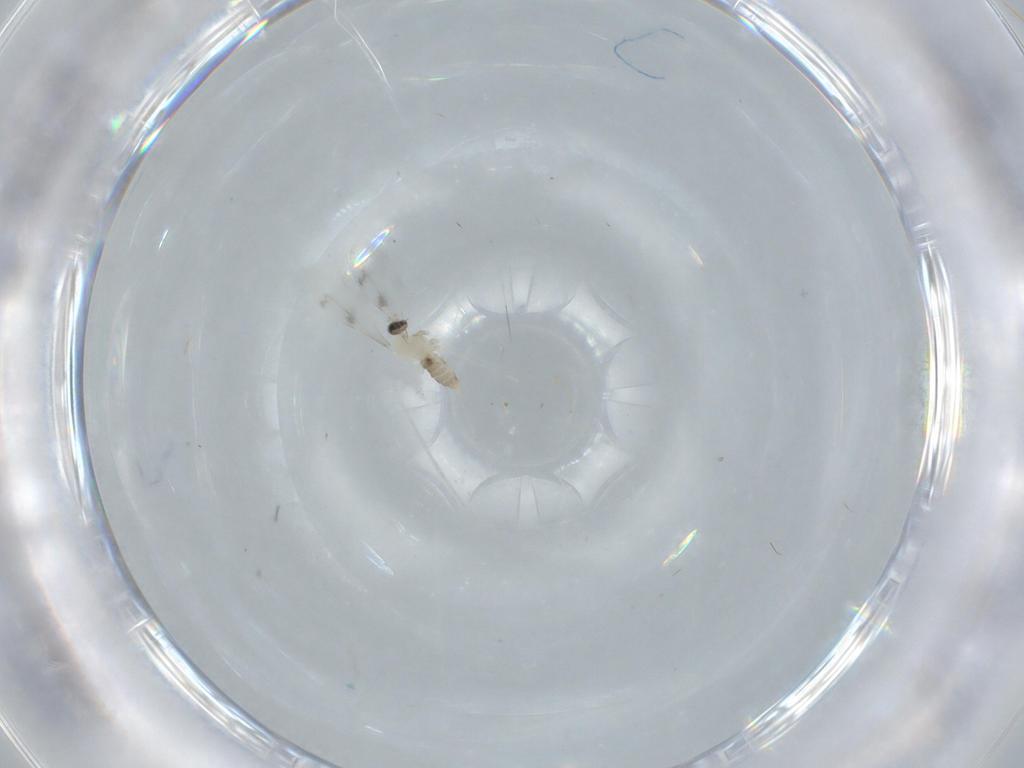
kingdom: Animalia
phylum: Arthropoda
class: Insecta
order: Diptera
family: Cecidomyiidae
